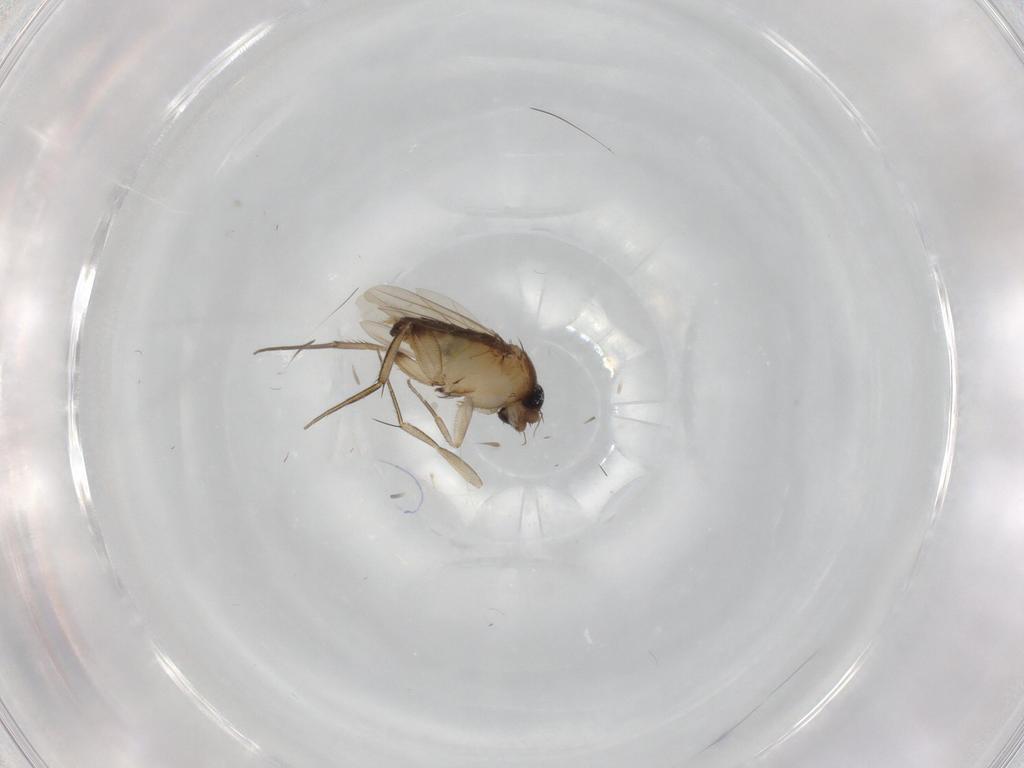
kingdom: Animalia
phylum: Arthropoda
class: Insecta
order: Diptera
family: Phoridae
